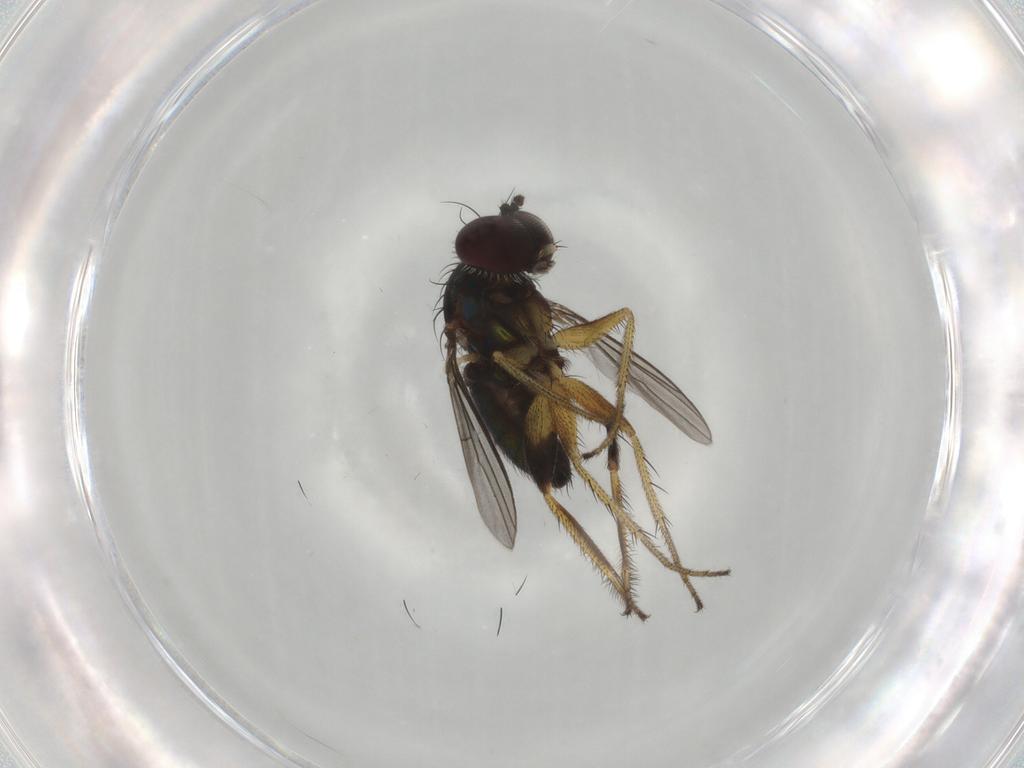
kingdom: Animalia
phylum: Arthropoda
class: Insecta
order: Diptera
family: Dolichopodidae
